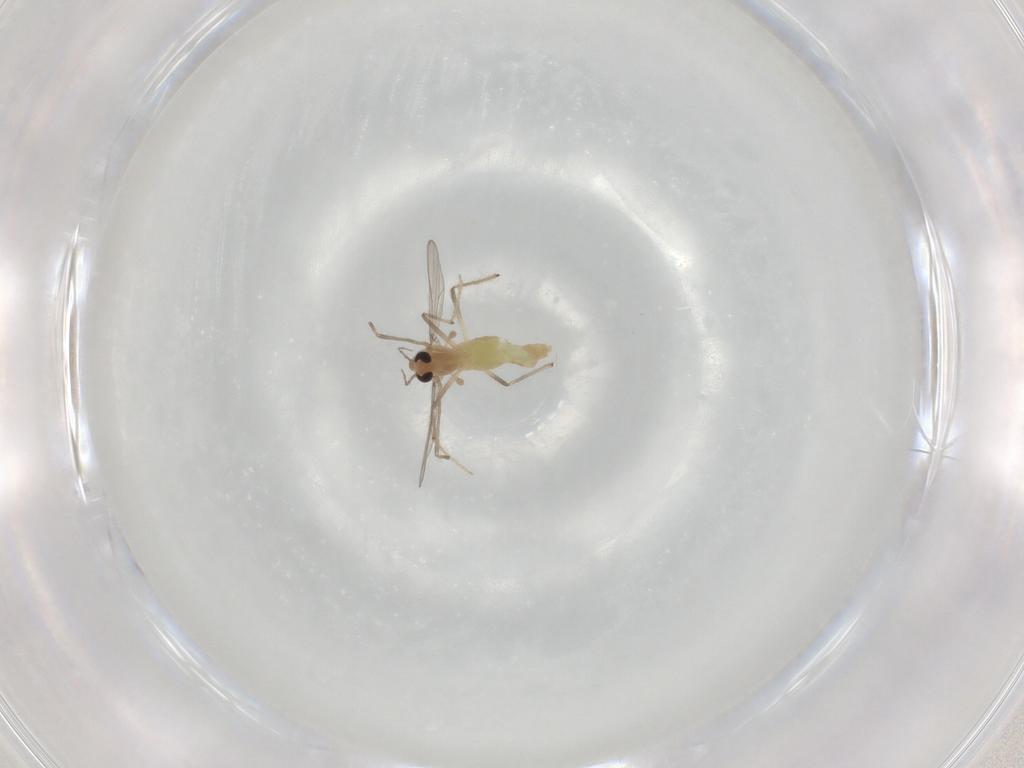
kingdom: Animalia
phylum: Arthropoda
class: Insecta
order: Diptera
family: Chironomidae
